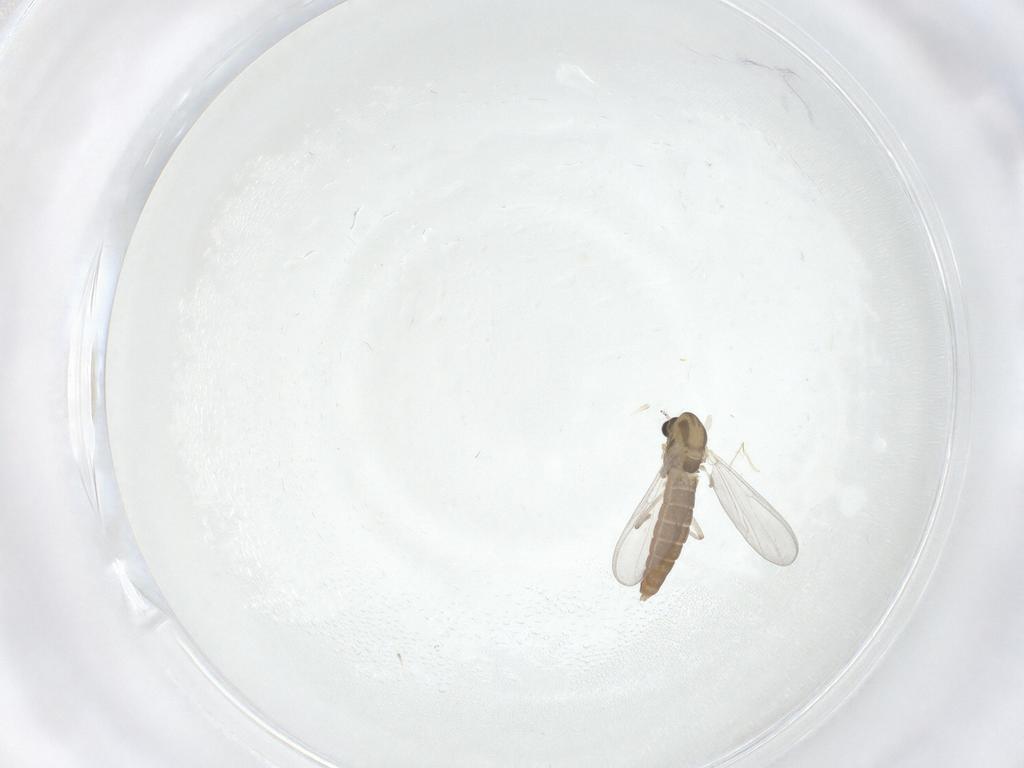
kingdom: Animalia
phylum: Arthropoda
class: Insecta
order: Diptera
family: Chironomidae
